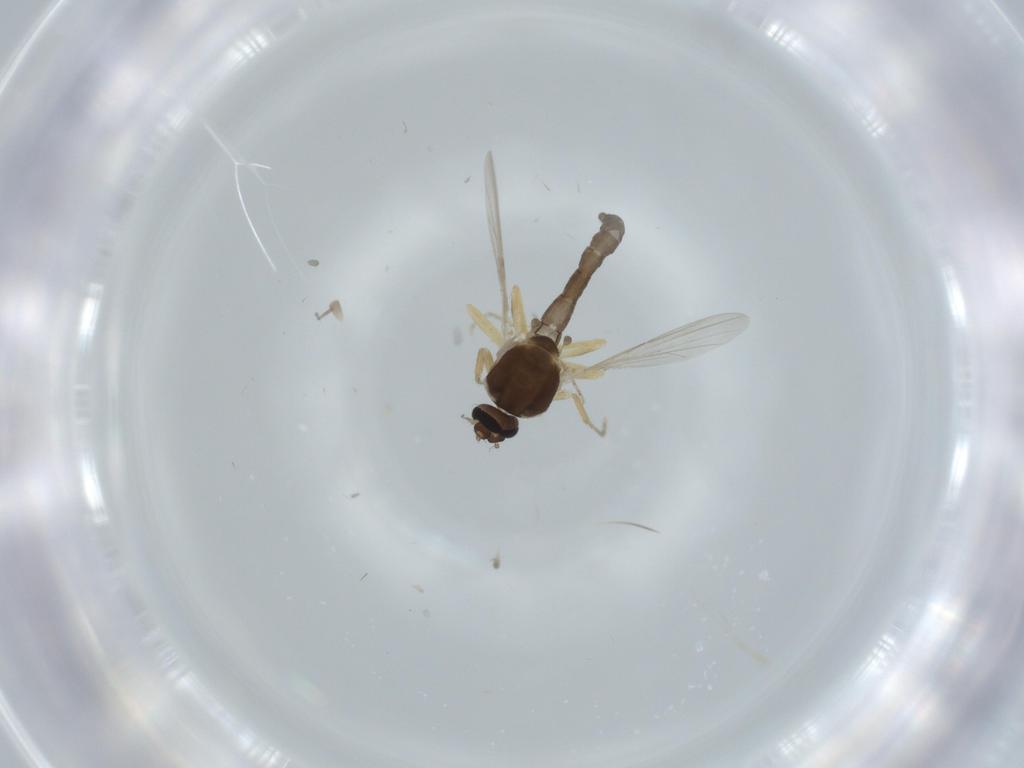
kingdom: Animalia
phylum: Arthropoda
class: Insecta
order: Diptera
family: Ceratopogonidae
